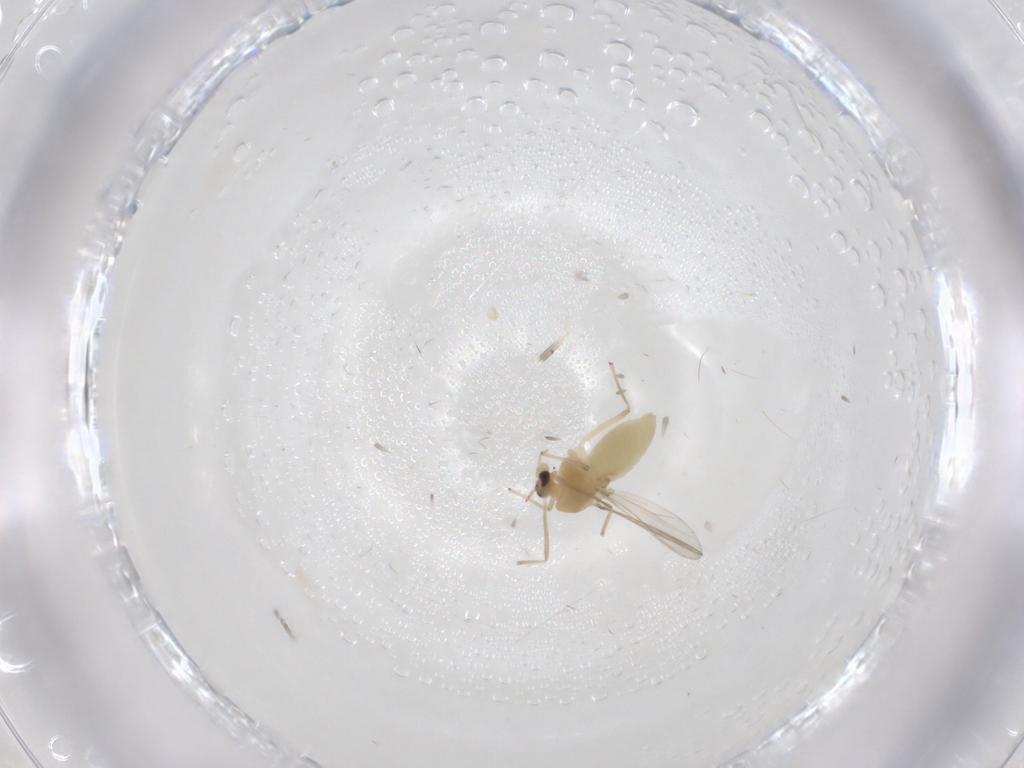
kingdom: Animalia
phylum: Arthropoda
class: Insecta
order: Diptera
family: Chironomidae
